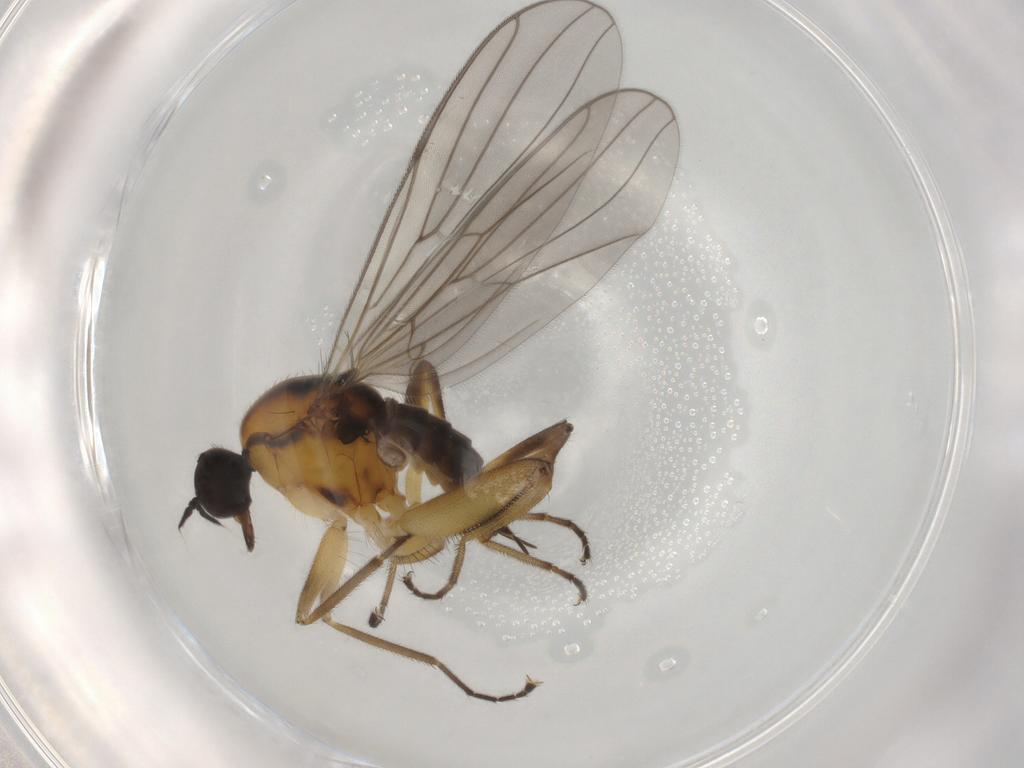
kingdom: Animalia
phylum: Arthropoda
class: Insecta
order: Diptera
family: Hybotidae
